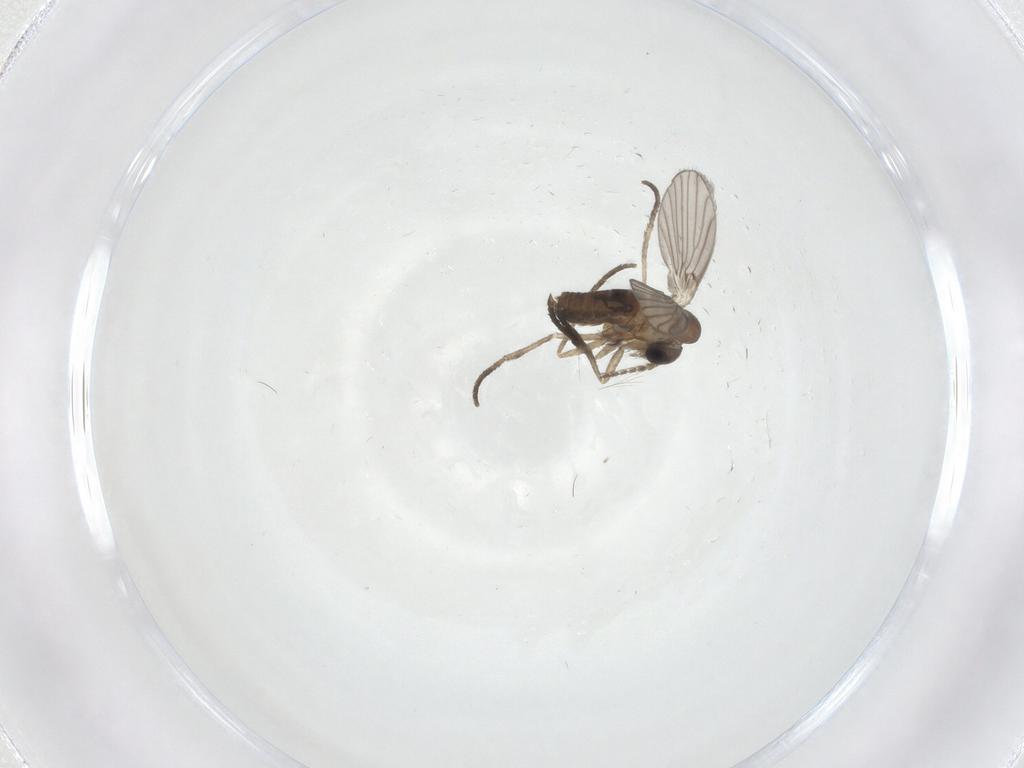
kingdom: Animalia
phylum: Arthropoda
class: Insecta
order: Diptera
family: Psychodidae
